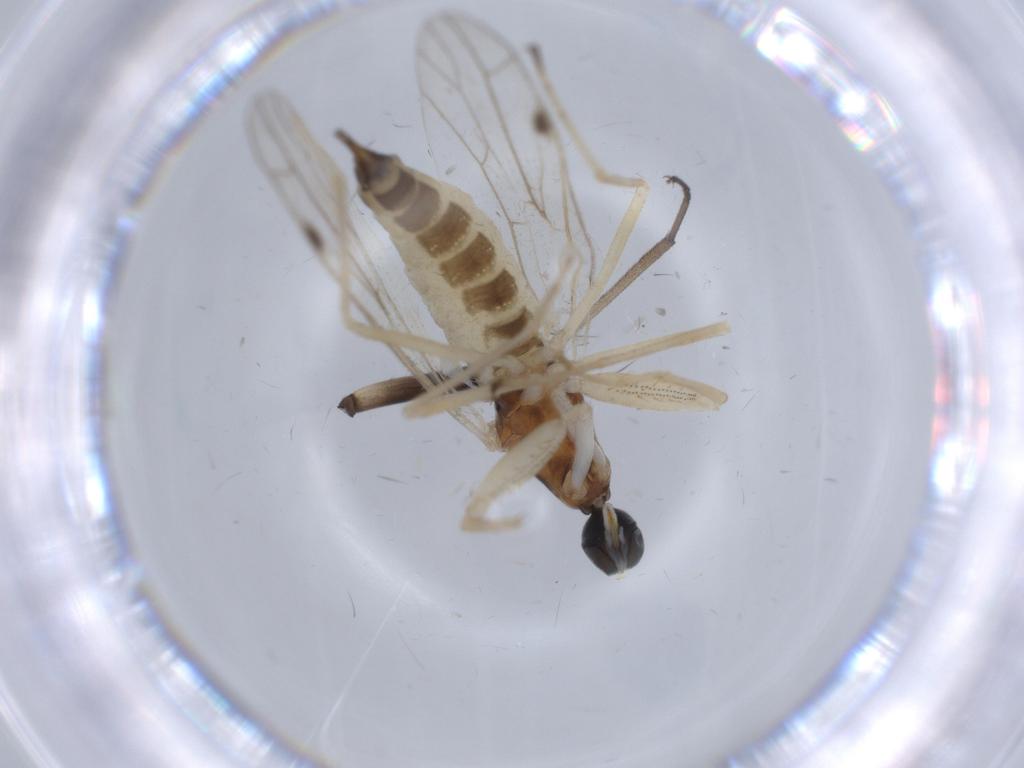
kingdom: Animalia
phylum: Arthropoda
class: Insecta
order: Diptera
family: Empididae
